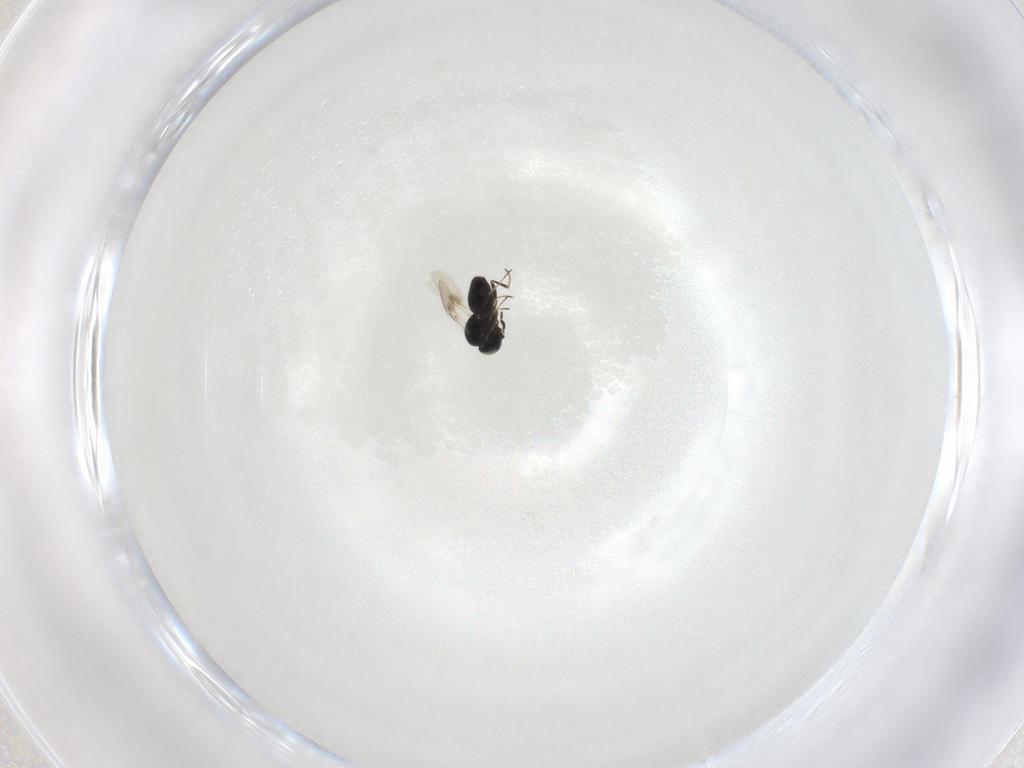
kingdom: Animalia
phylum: Arthropoda
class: Insecta
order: Hymenoptera
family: Scelionidae
